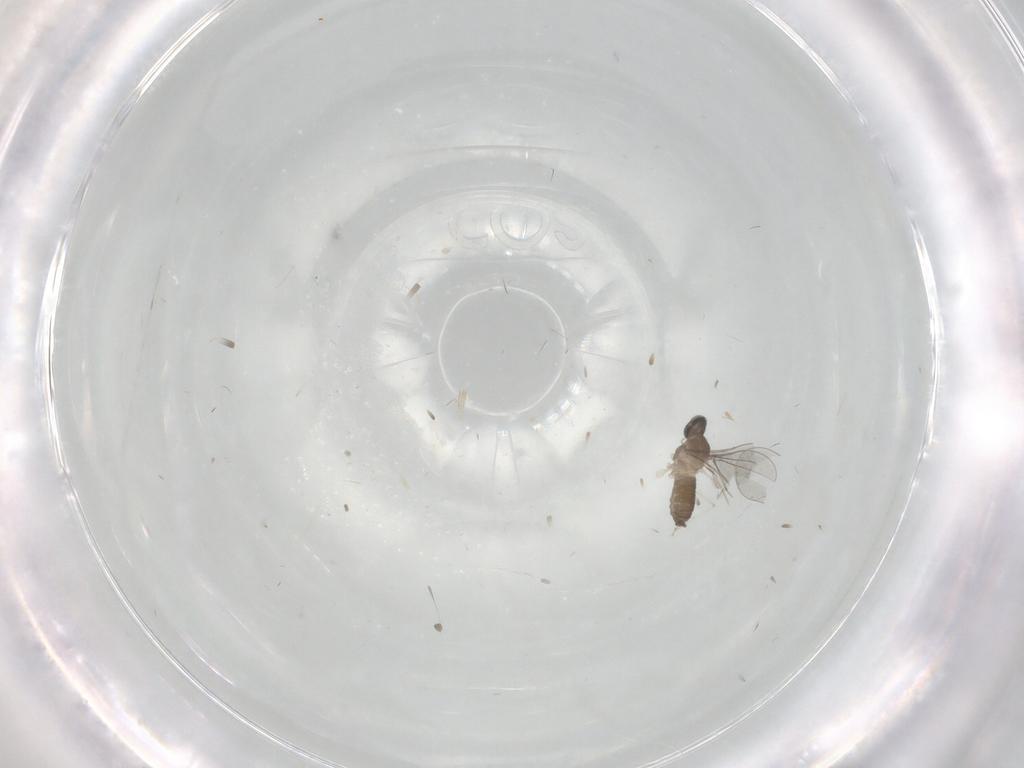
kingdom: Animalia
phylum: Arthropoda
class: Insecta
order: Diptera
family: Cecidomyiidae
